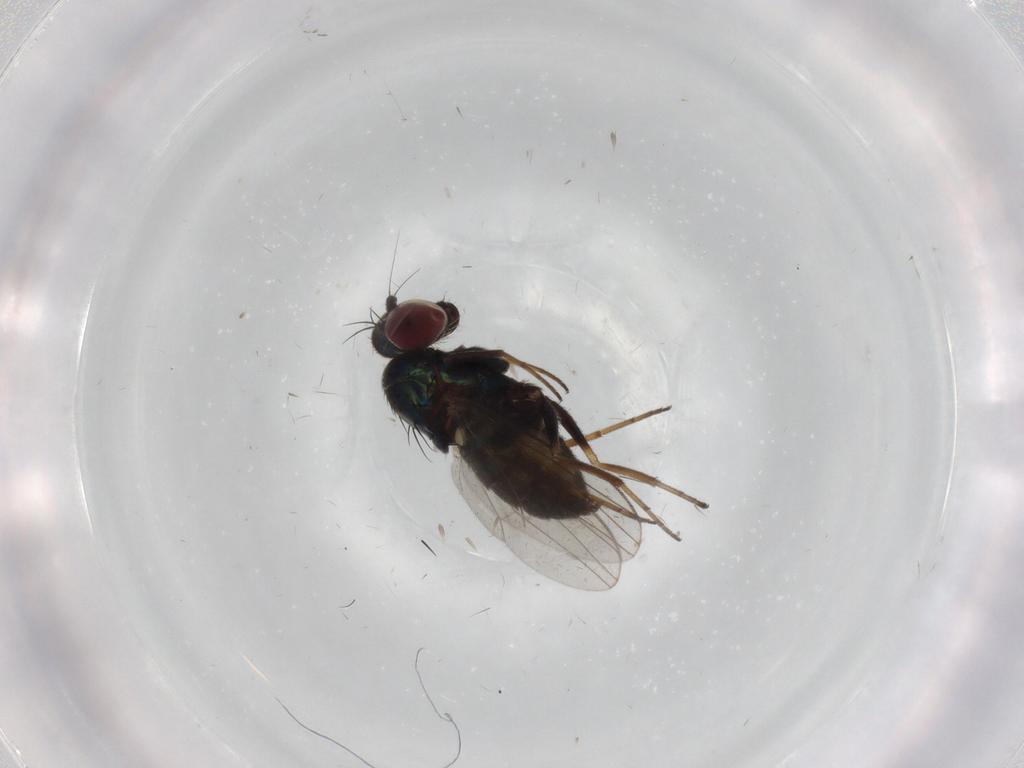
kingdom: Animalia
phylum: Arthropoda
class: Insecta
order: Diptera
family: Dolichopodidae
